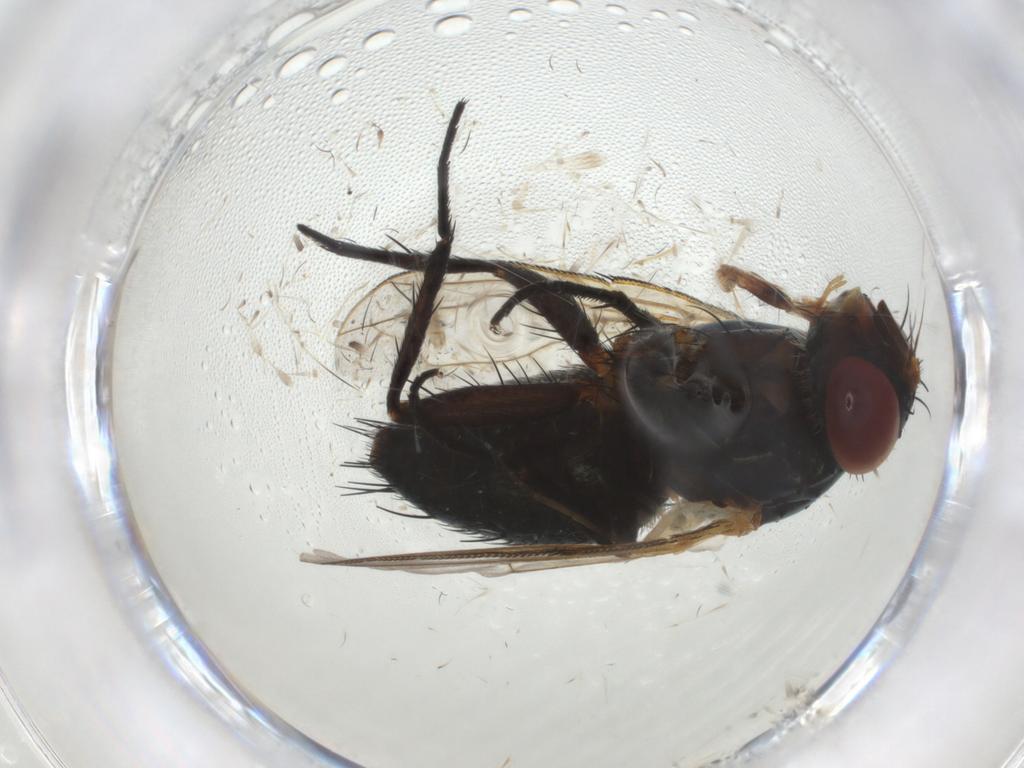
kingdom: Animalia
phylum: Arthropoda
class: Insecta
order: Diptera
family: Tachinidae
